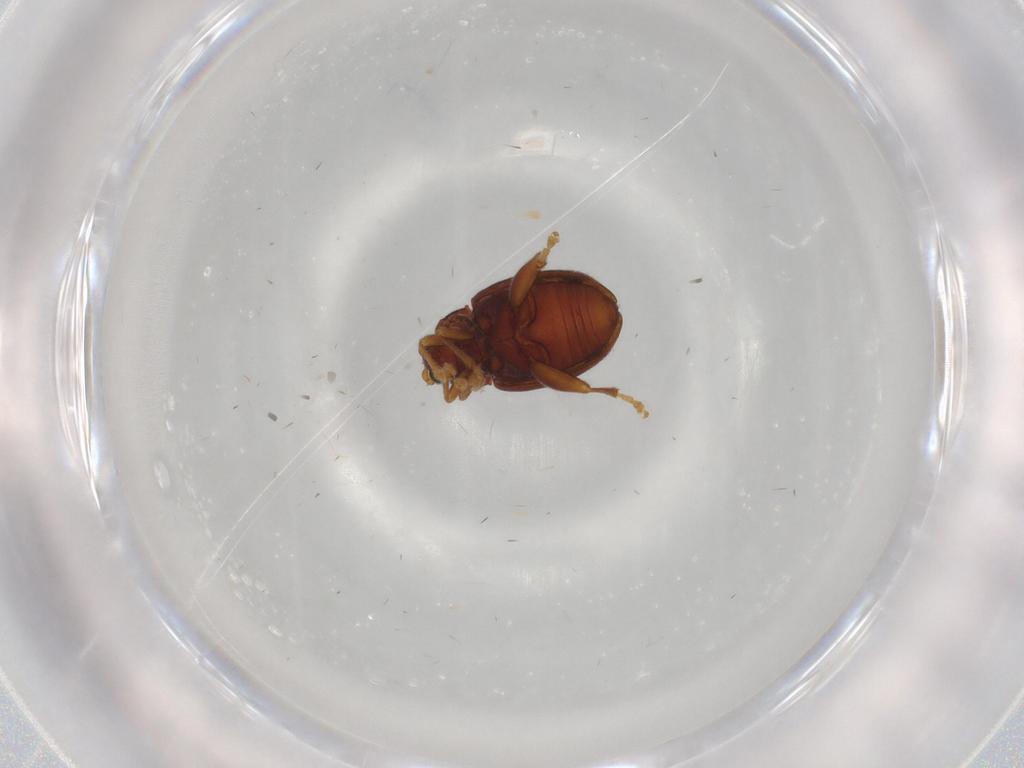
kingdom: Animalia
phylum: Arthropoda
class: Insecta
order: Coleoptera
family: Chrysomelidae
